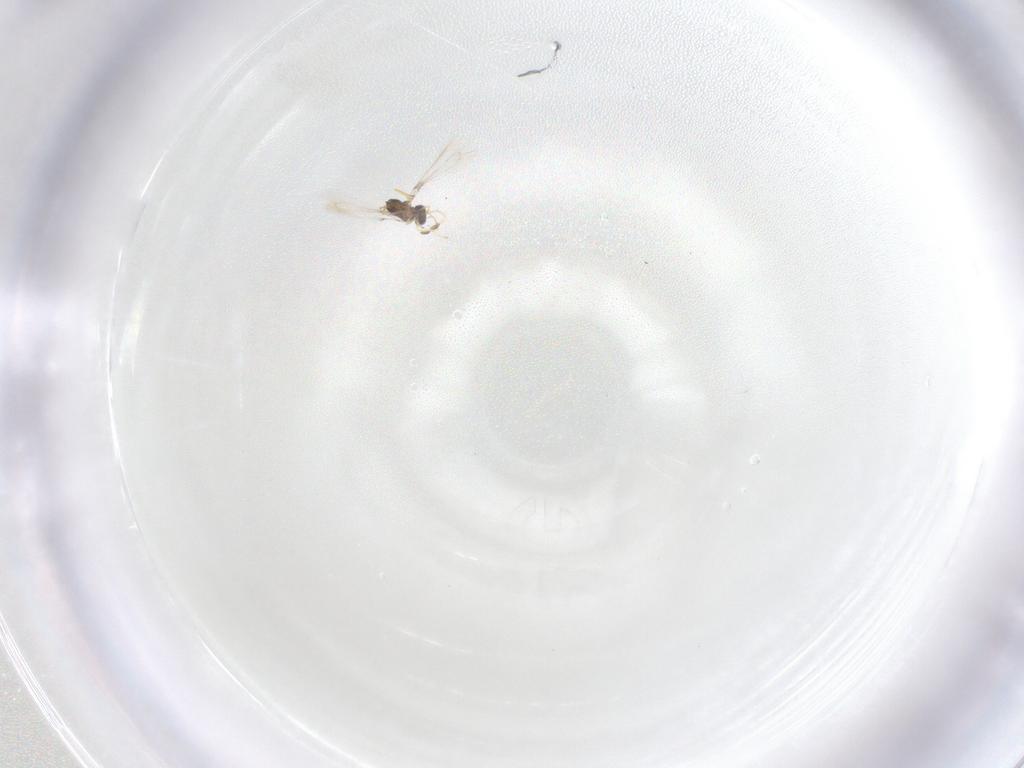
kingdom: Animalia
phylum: Arthropoda
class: Insecta
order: Hymenoptera
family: Mymaridae
